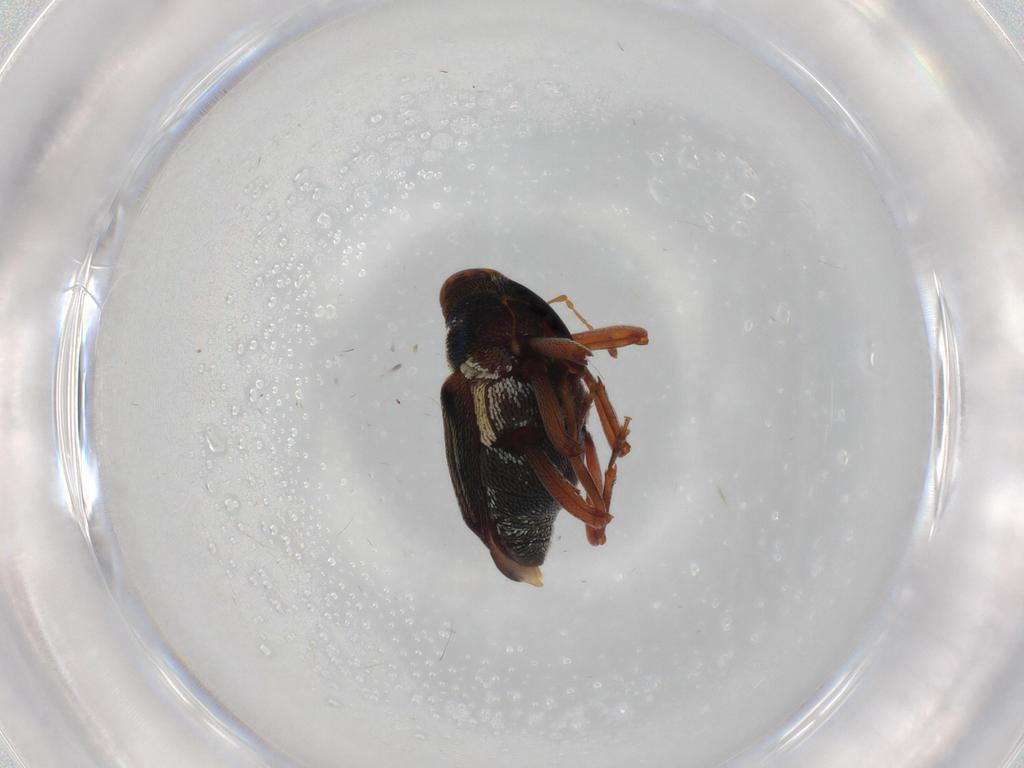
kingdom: Animalia
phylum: Arthropoda
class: Insecta
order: Coleoptera
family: Curculionidae
